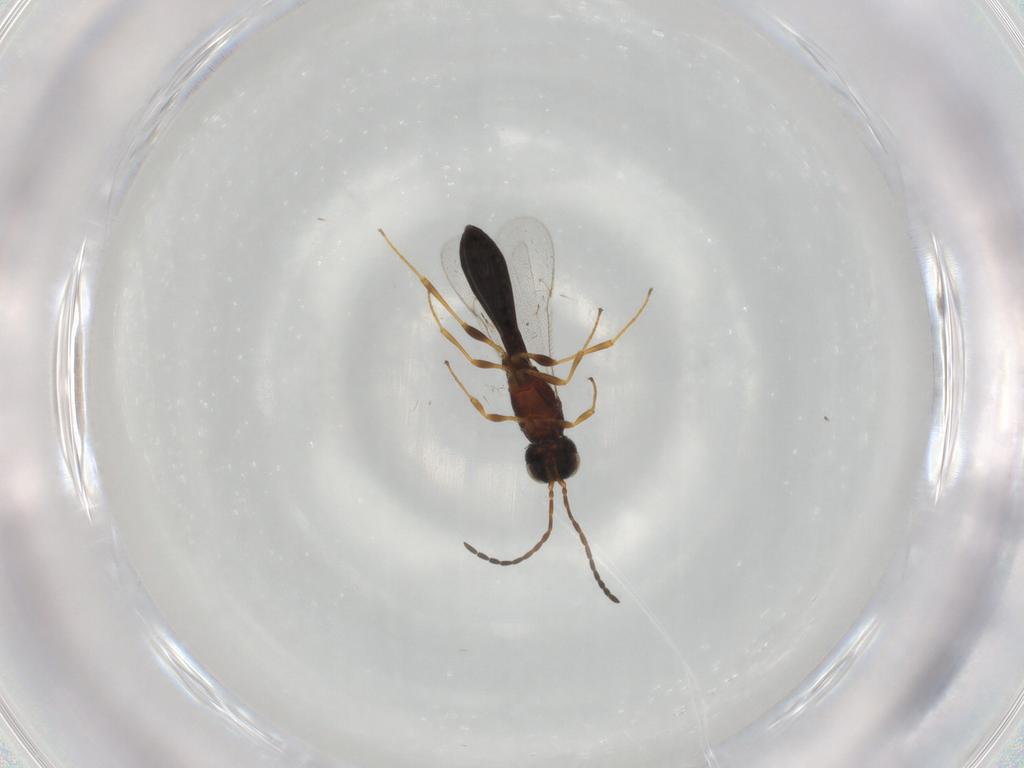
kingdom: Animalia
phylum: Arthropoda
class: Insecta
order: Hymenoptera
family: Scelionidae
